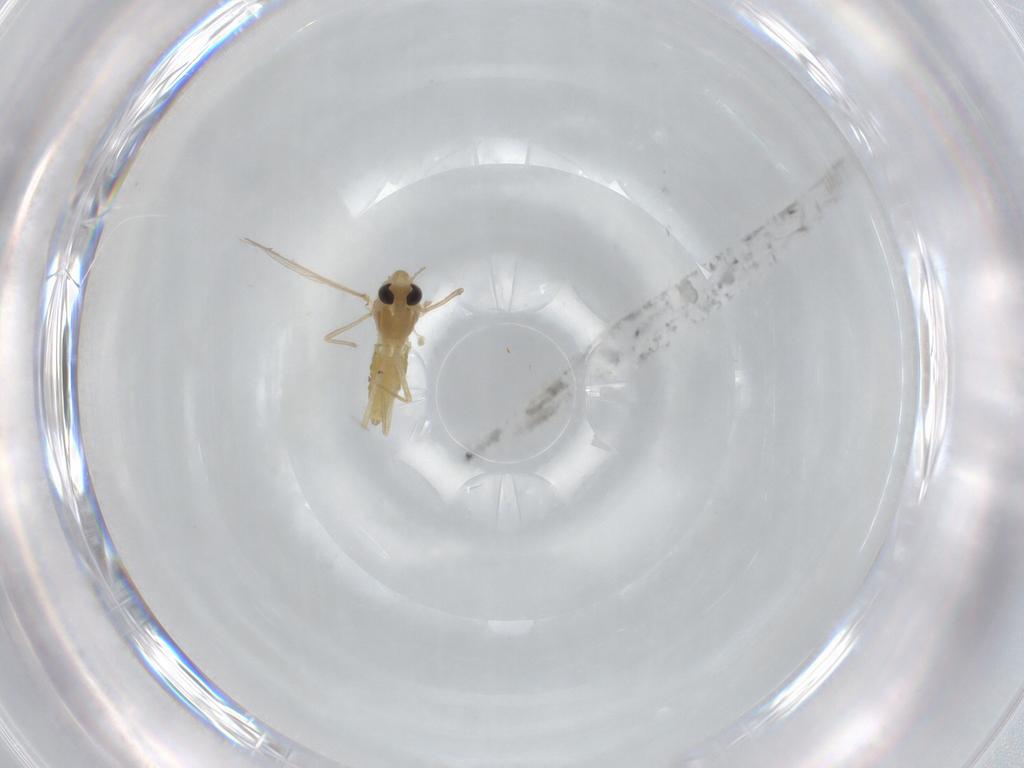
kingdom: Animalia
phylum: Arthropoda
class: Insecta
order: Diptera
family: Chironomidae
